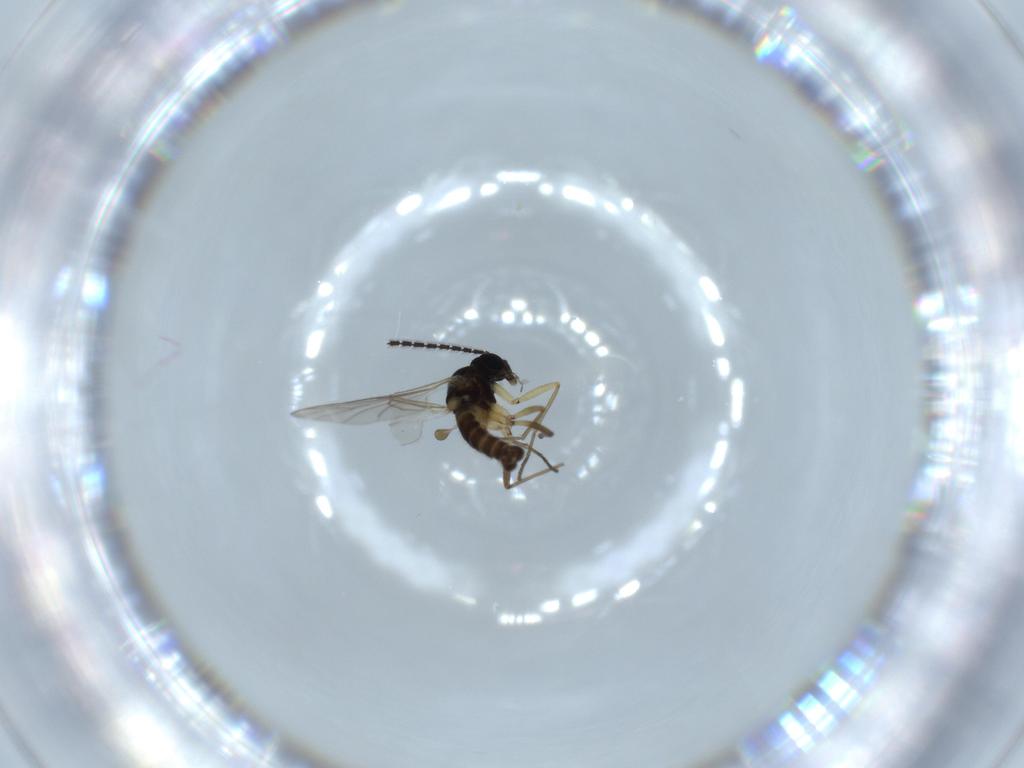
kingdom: Animalia
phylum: Arthropoda
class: Insecta
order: Diptera
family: Sciaridae
